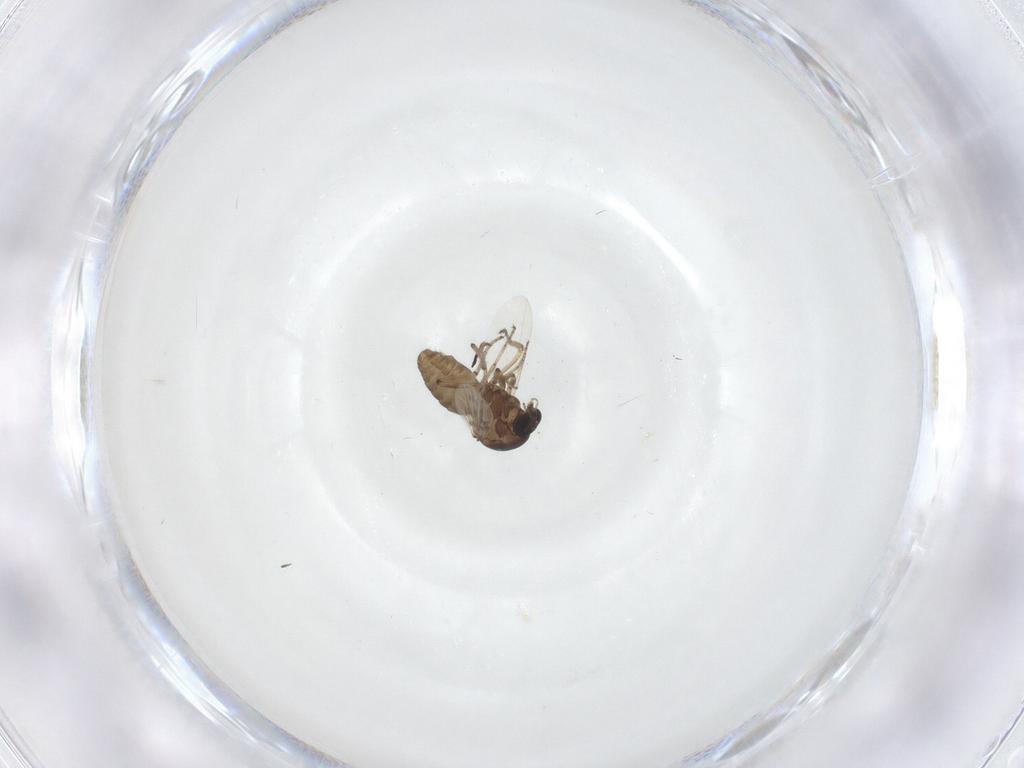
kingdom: Animalia
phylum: Arthropoda
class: Insecta
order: Diptera
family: Ceratopogonidae
